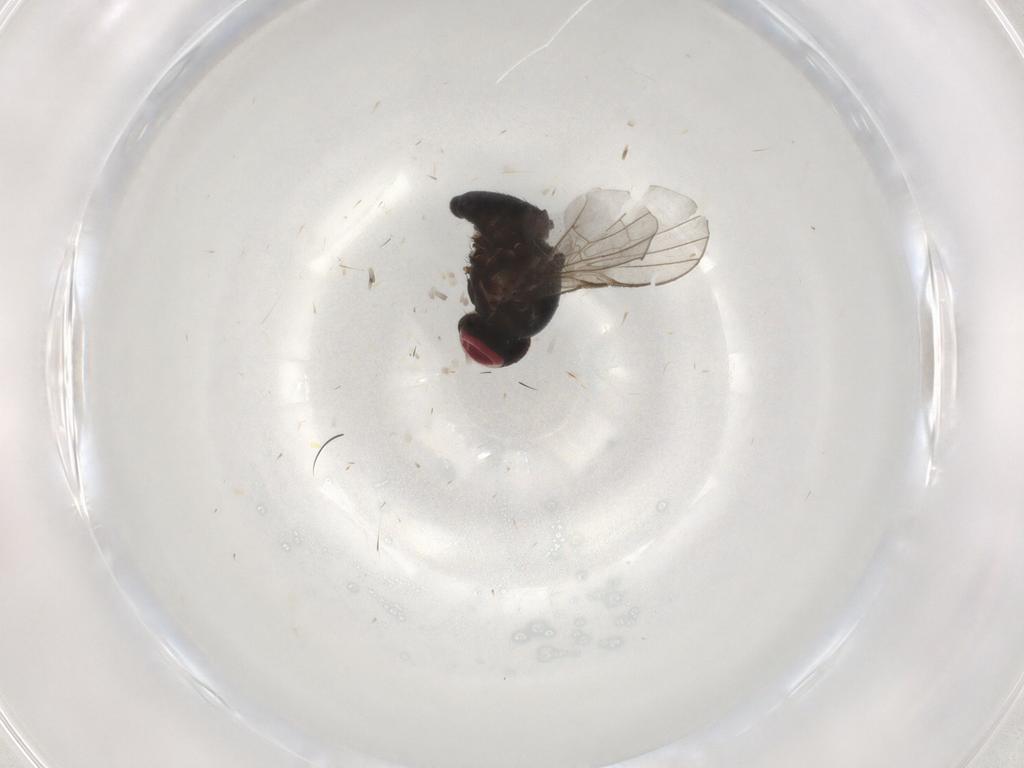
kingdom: Animalia
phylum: Arthropoda
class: Insecta
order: Diptera
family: Agromyzidae
